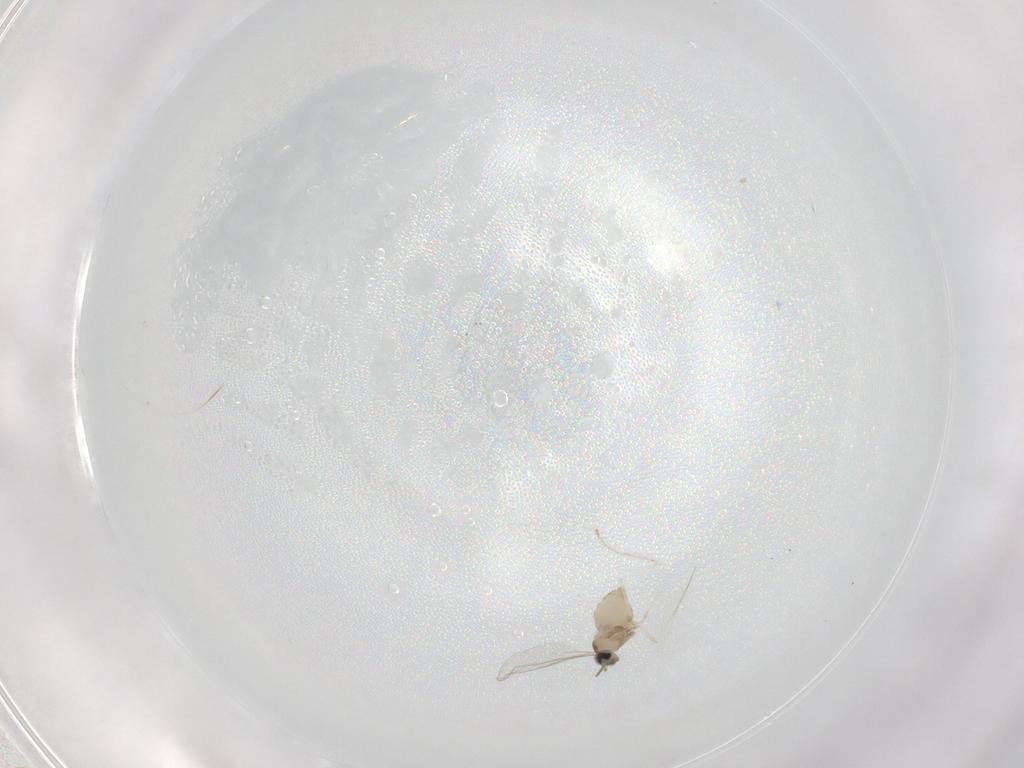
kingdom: Animalia
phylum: Arthropoda
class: Insecta
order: Diptera
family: Cecidomyiidae
